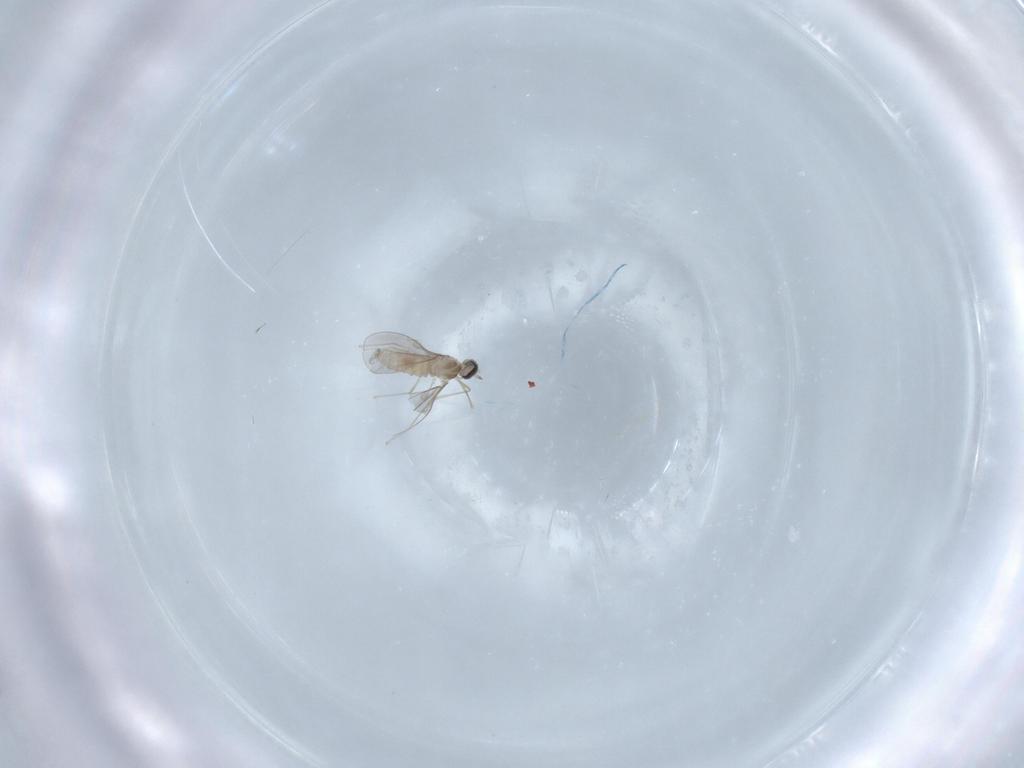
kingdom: Animalia
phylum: Arthropoda
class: Insecta
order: Diptera
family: Cecidomyiidae
